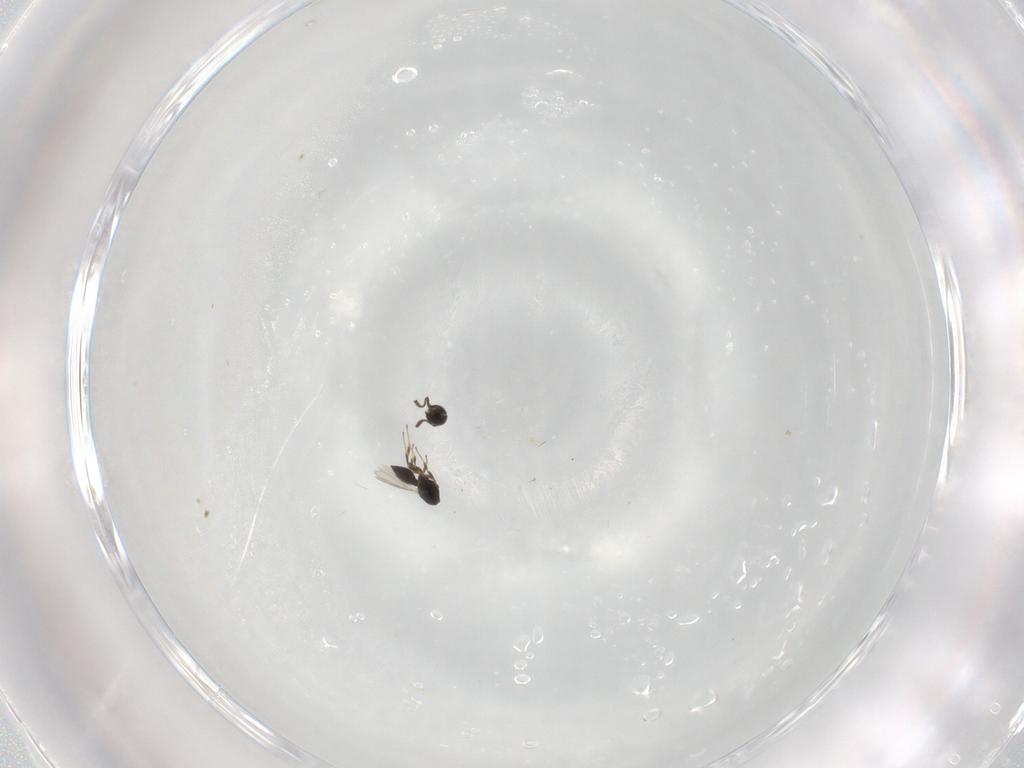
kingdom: Animalia
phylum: Arthropoda
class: Insecta
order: Hymenoptera
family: Scelionidae
